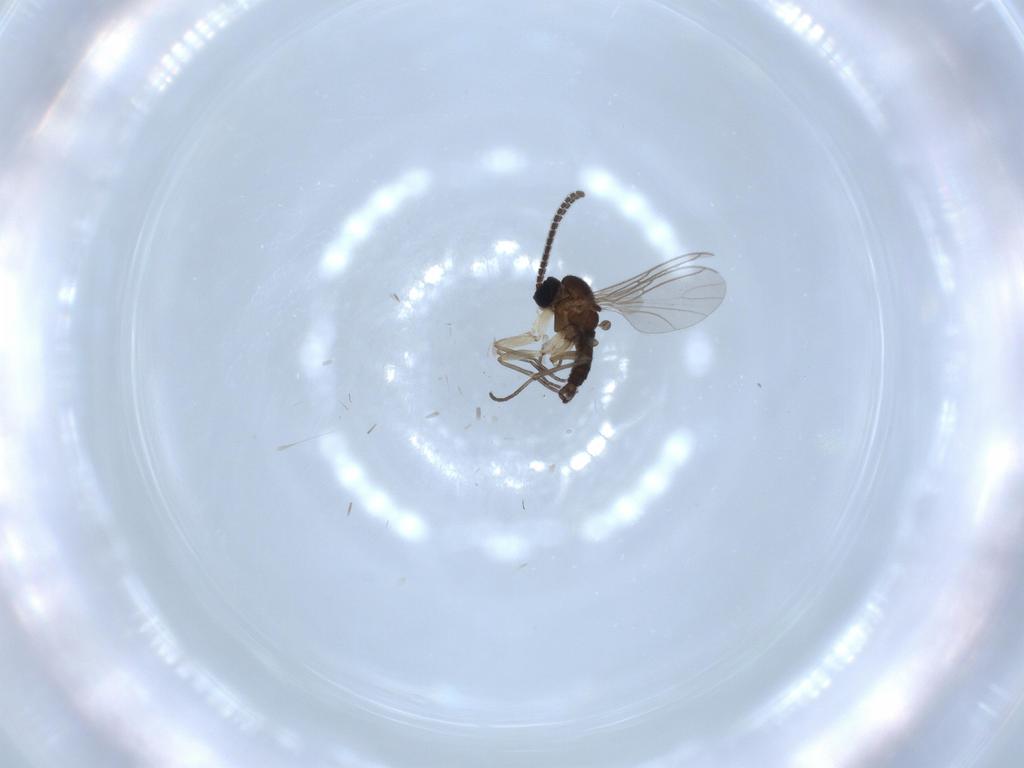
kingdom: Animalia
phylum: Arthropoda
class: Insecta
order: Diptera
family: Sciaridae
